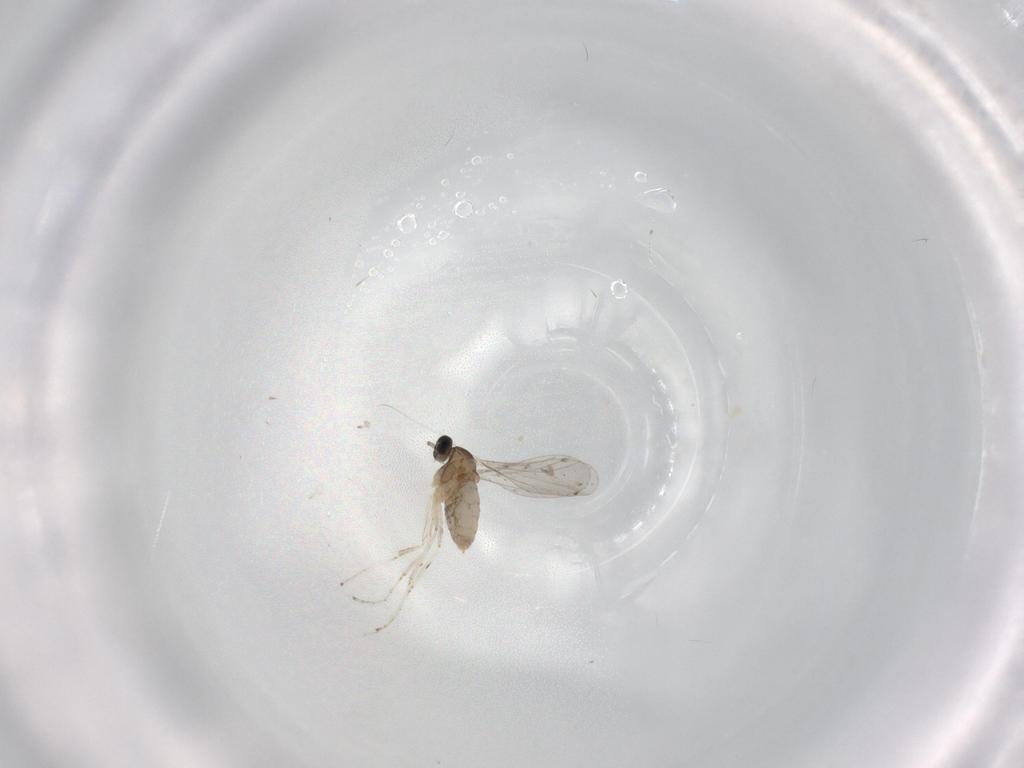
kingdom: Animalia
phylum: Arthropoda
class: Insecta
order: Diptera
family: Cecidomyiidae
